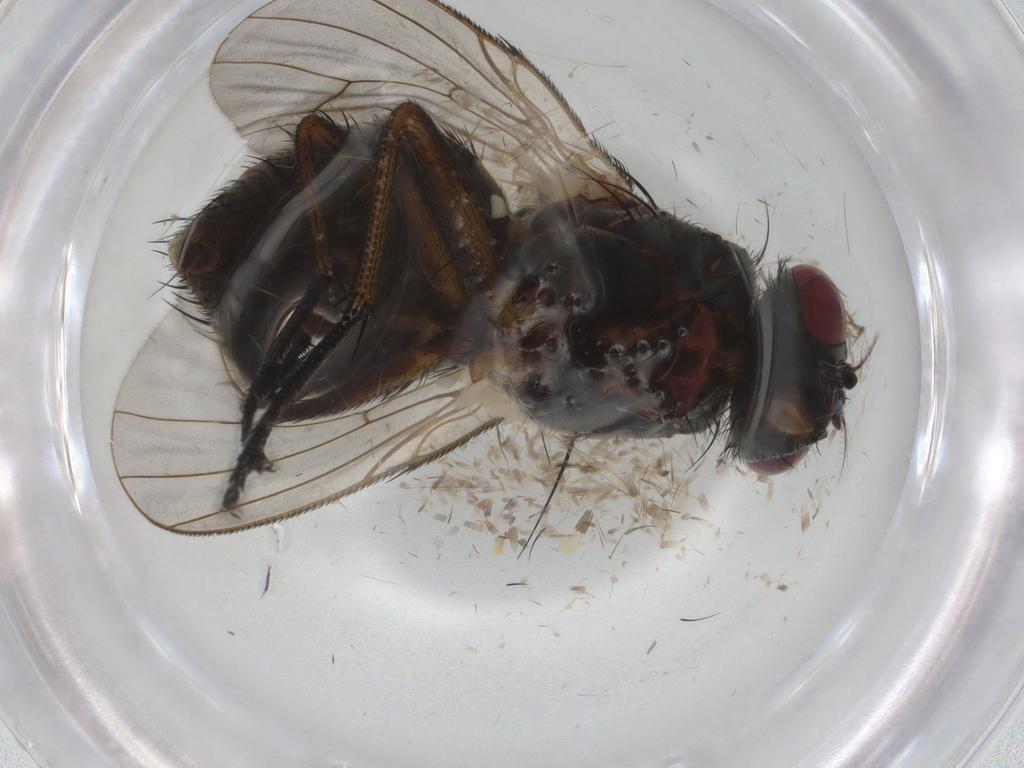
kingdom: Animalia
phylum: Arthropoda
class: Insecta
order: Diptera
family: Muscidae
